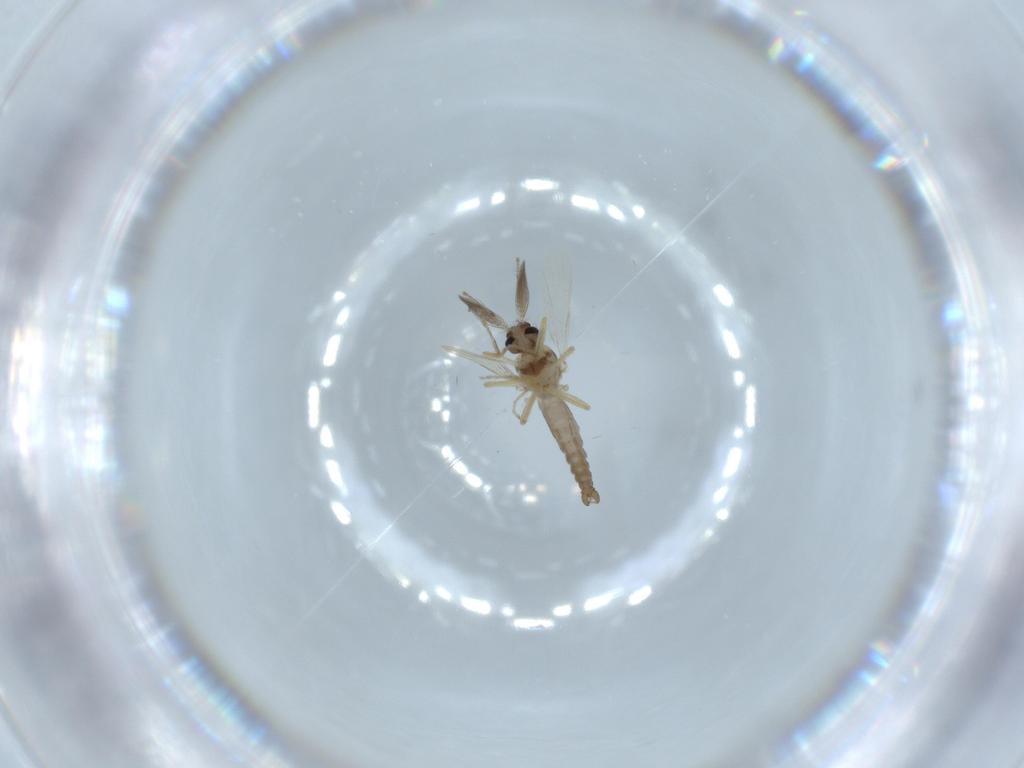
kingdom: Animalia
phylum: Arthropoda
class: Insecta
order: Diptera
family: Ceratopogonidae
